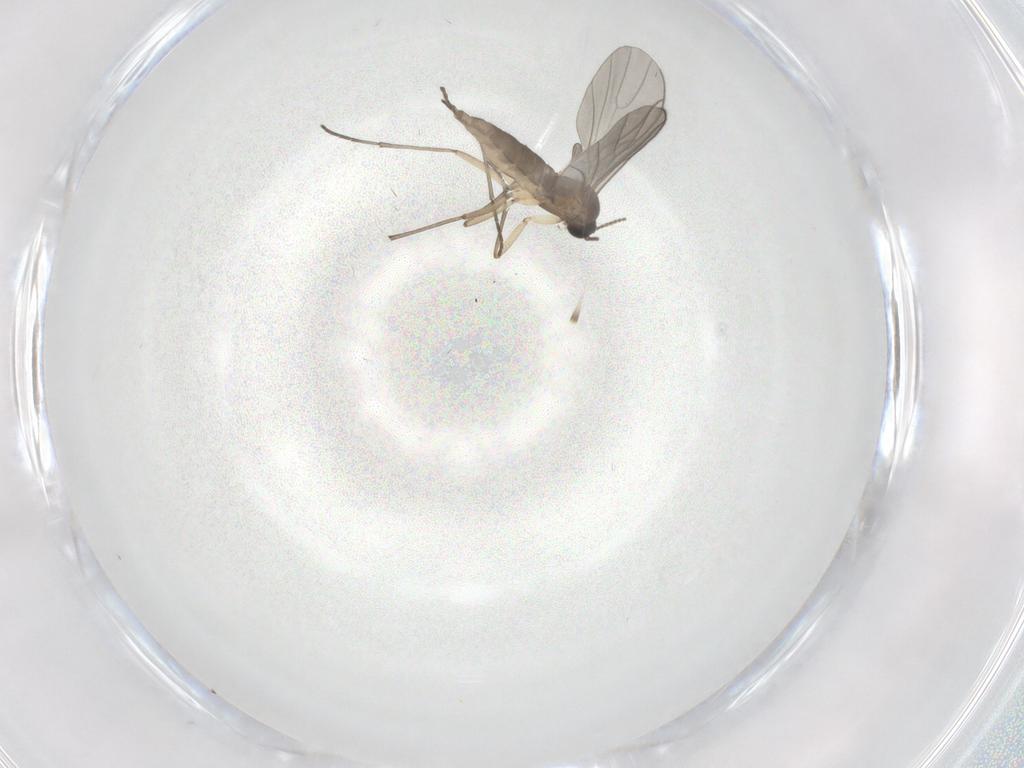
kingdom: Animalia
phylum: Arthropoda
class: Insecta
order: Diptera
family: Sciaridae
